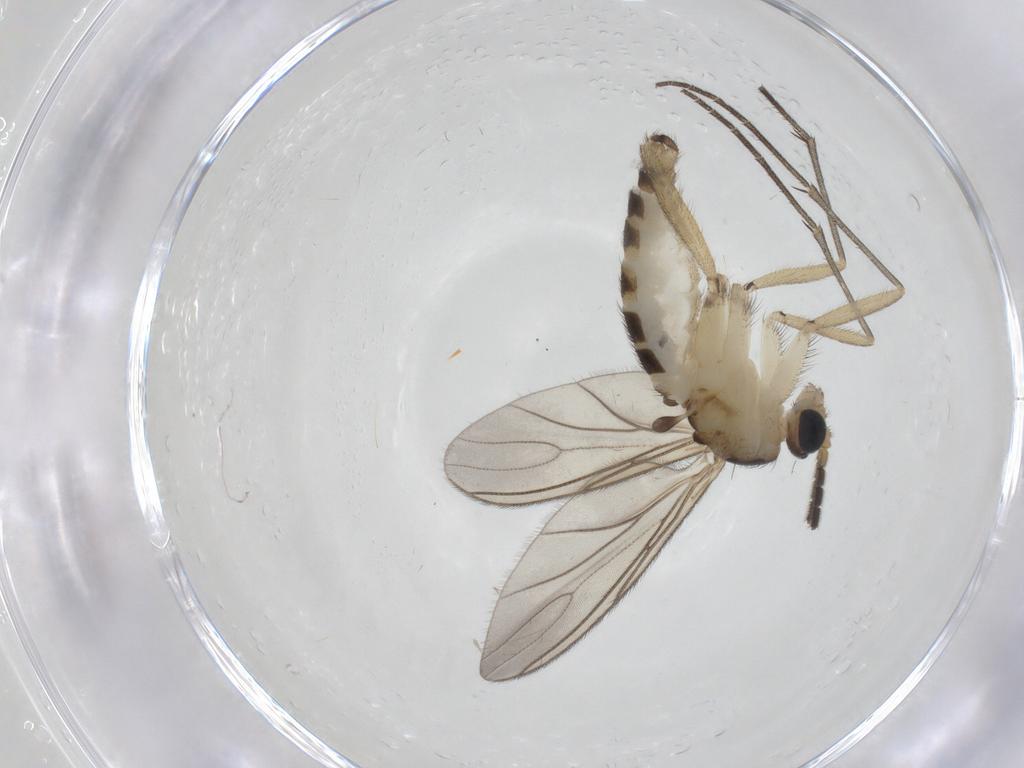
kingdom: Animalia
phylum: Arthropoda
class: Insecta
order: Diptera
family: Sciaridae
